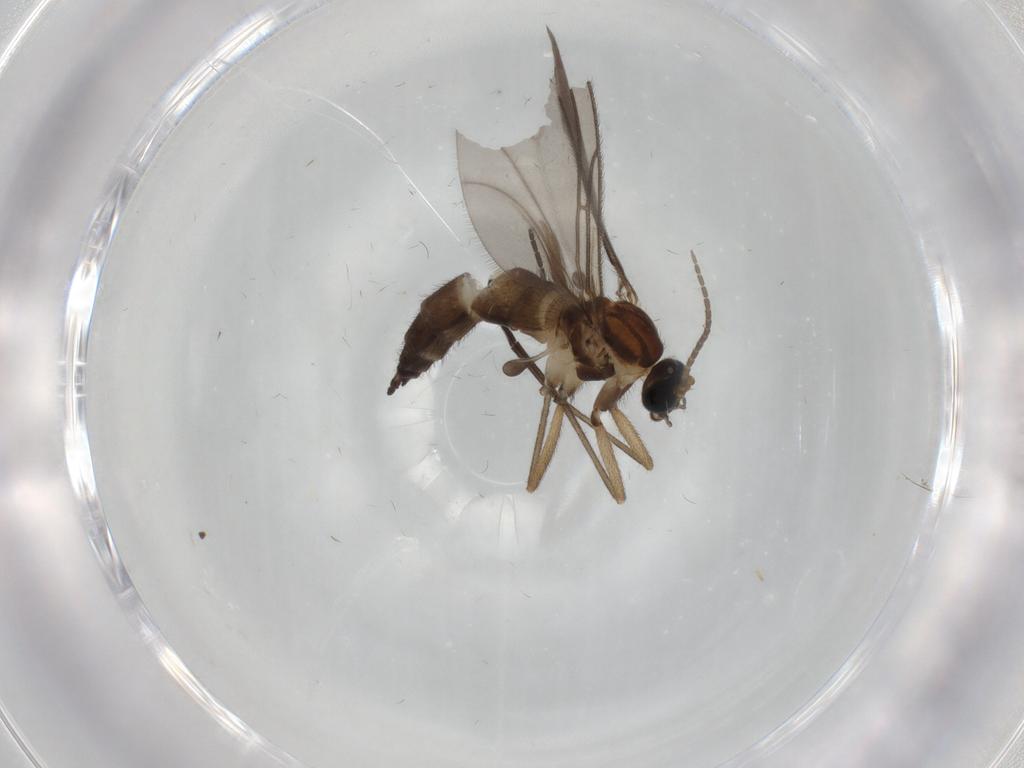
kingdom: Animalia
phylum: Arthropoda
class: Insecta
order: Diptera
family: Sciaridae
